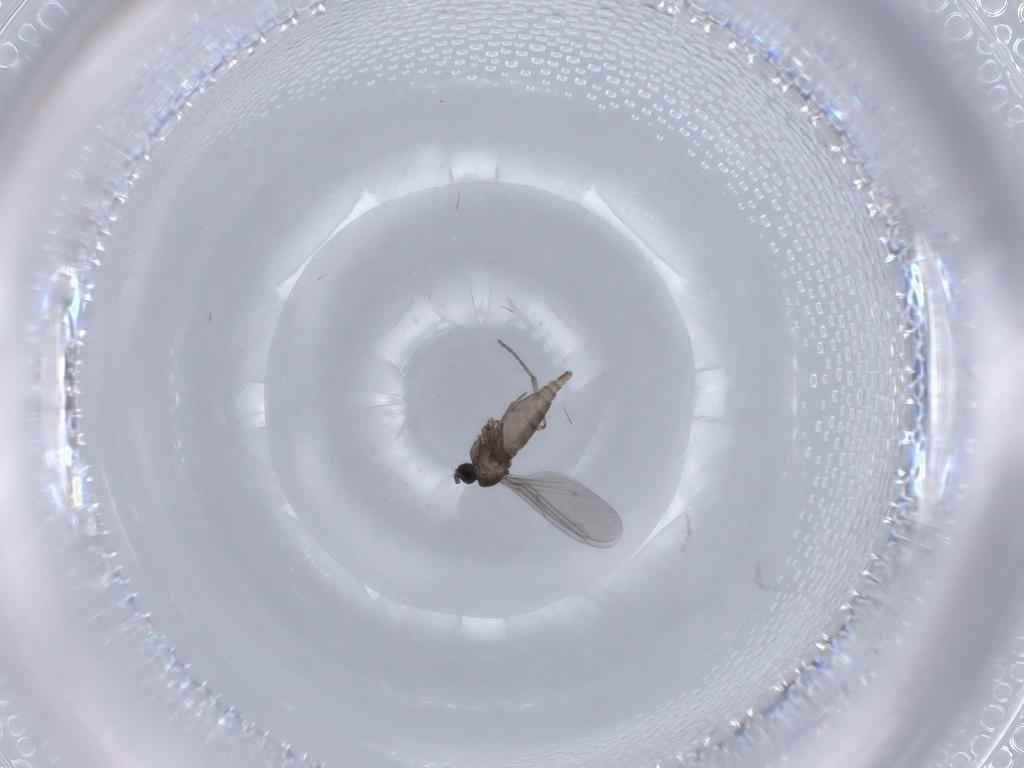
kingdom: Animalia
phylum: Arthropoda
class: Insecta
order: Diptera
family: Sciaridae
